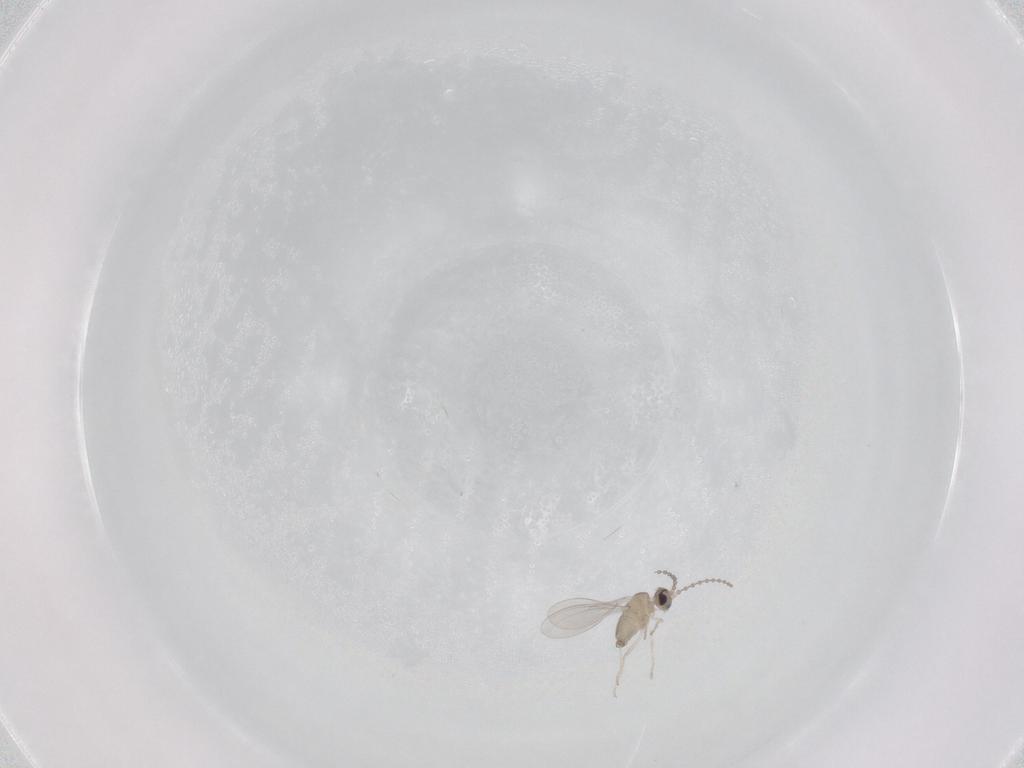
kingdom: Animalia
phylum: Arthropoda
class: Insecta
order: Diptera
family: Cecidomyiidae
